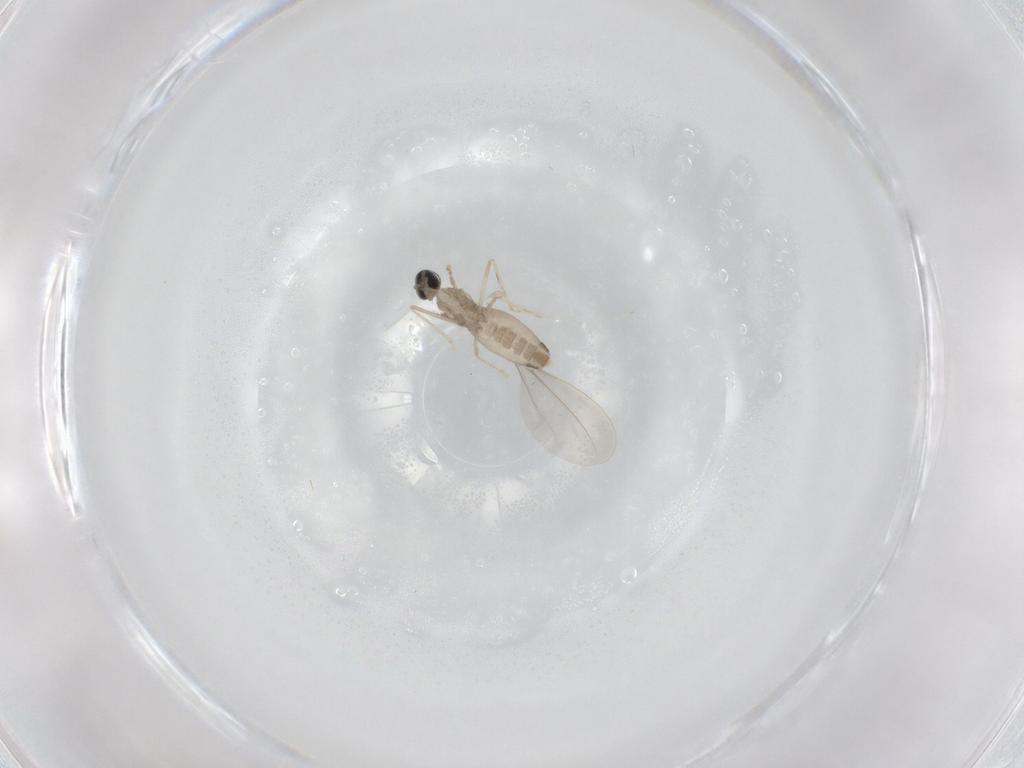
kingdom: Animalia
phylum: Arthropoda
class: Insecta
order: Diptera
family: Cecidomyiidae
